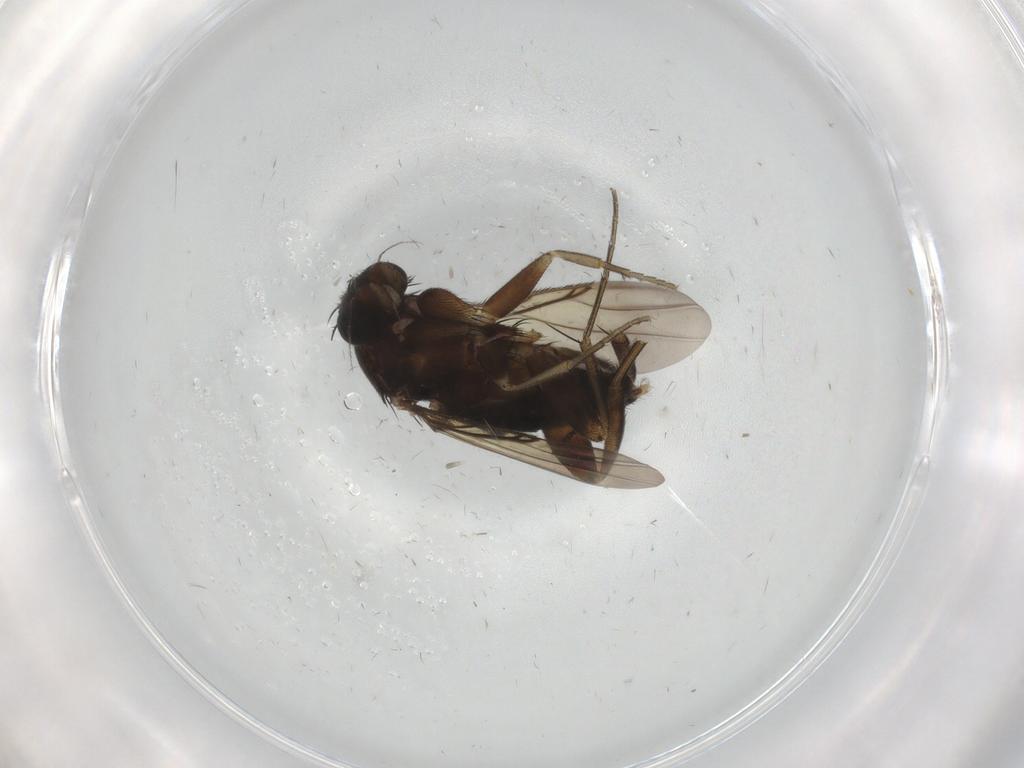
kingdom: Animalia
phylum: Arthropoda
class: Insecta
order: Diptera
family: Phoridae
